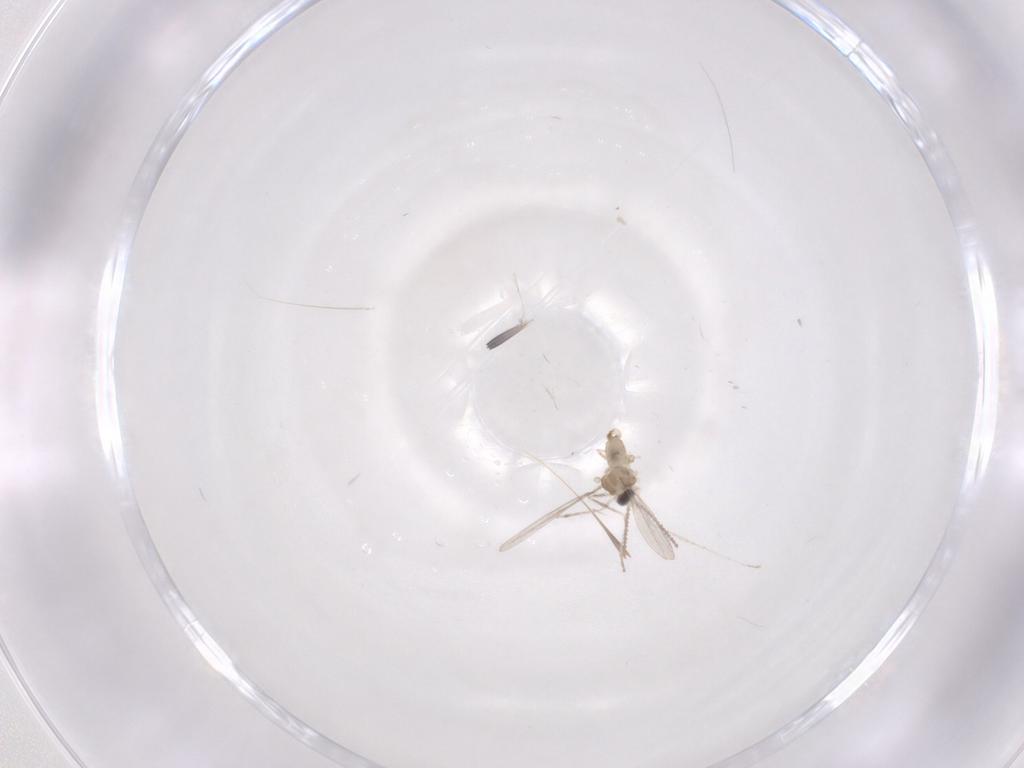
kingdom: Animalia
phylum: Arthropoda
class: Insecta
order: Diptera
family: Cecidomyiidae
